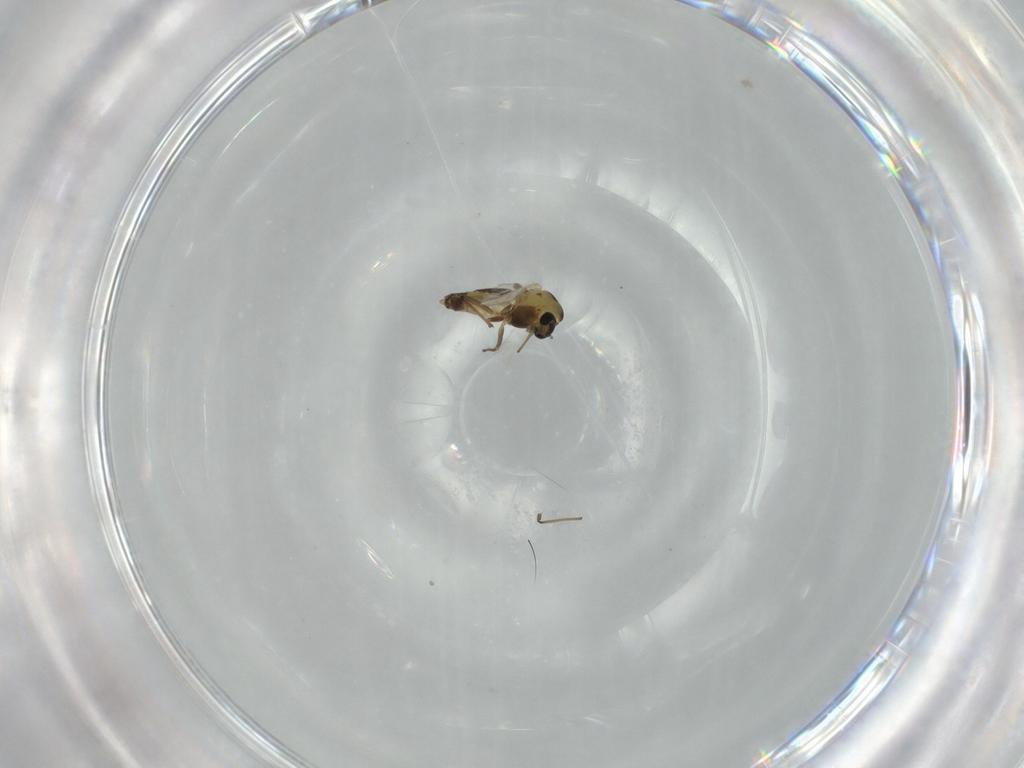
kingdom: Animalia
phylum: Arthropoda
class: Insecta
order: Diptera
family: Chironomidae
